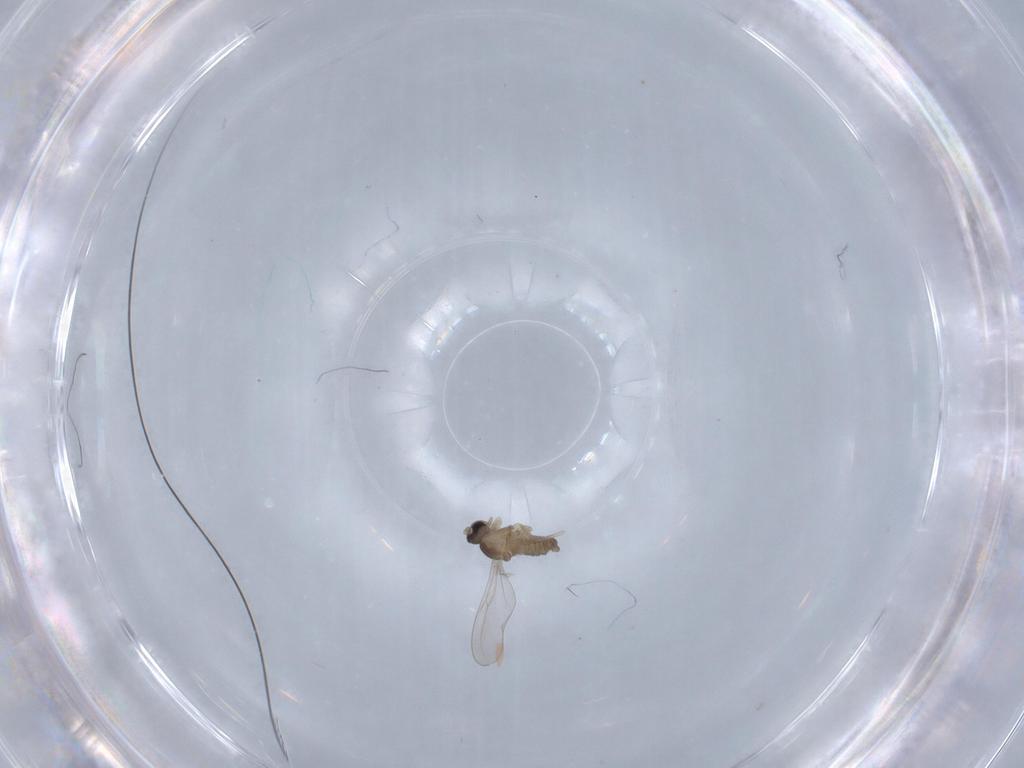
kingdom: Animalia
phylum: Arthropoda
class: Insecta
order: Diptera
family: Cecidomyiidae
